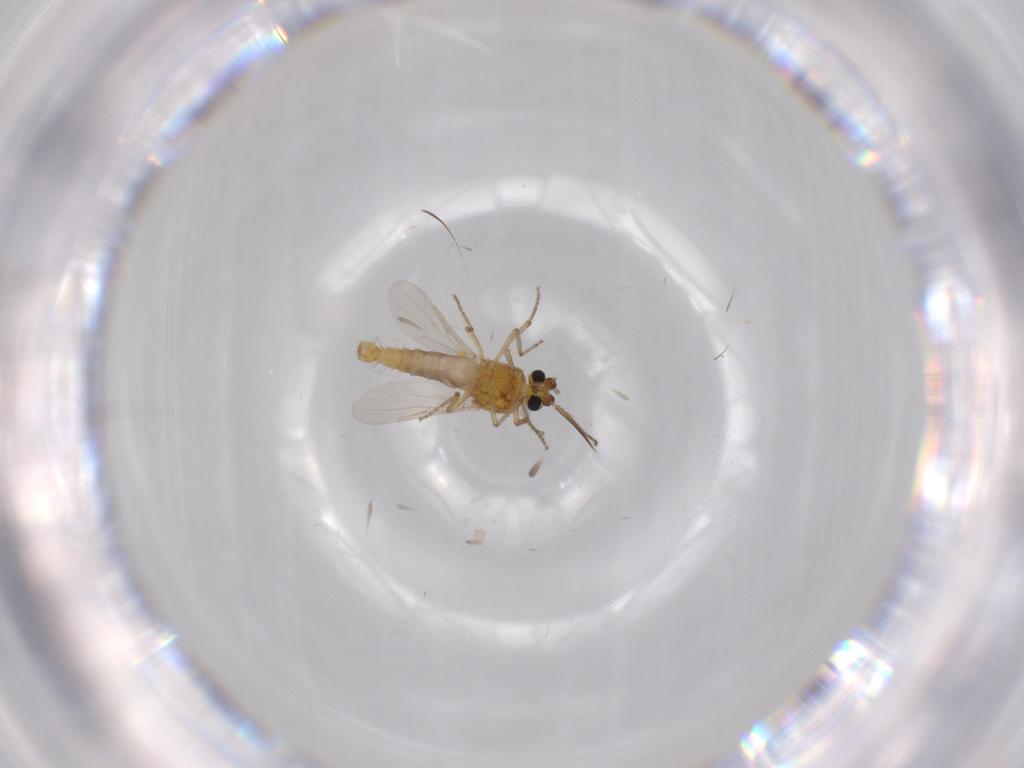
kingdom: Animalia
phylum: Arthropoda
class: Insecta
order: Diptera
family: Ceratopogonidae
